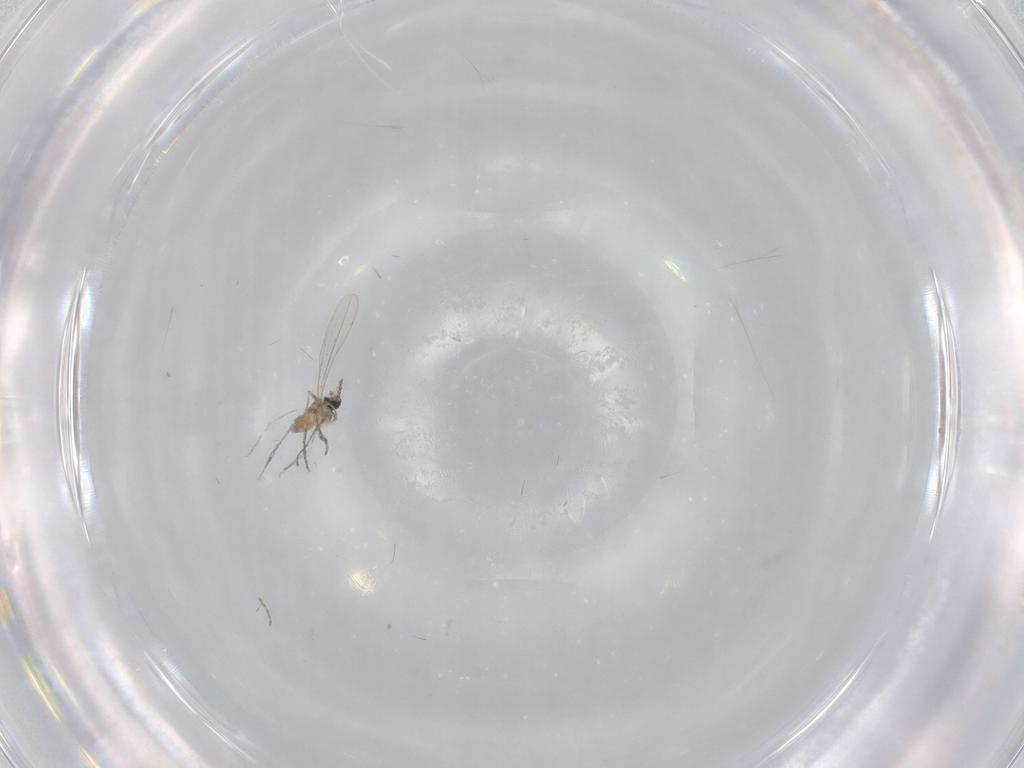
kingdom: Animalia
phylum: Arthropoda
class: Insecta
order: Diptera
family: Cecidomyiidae
